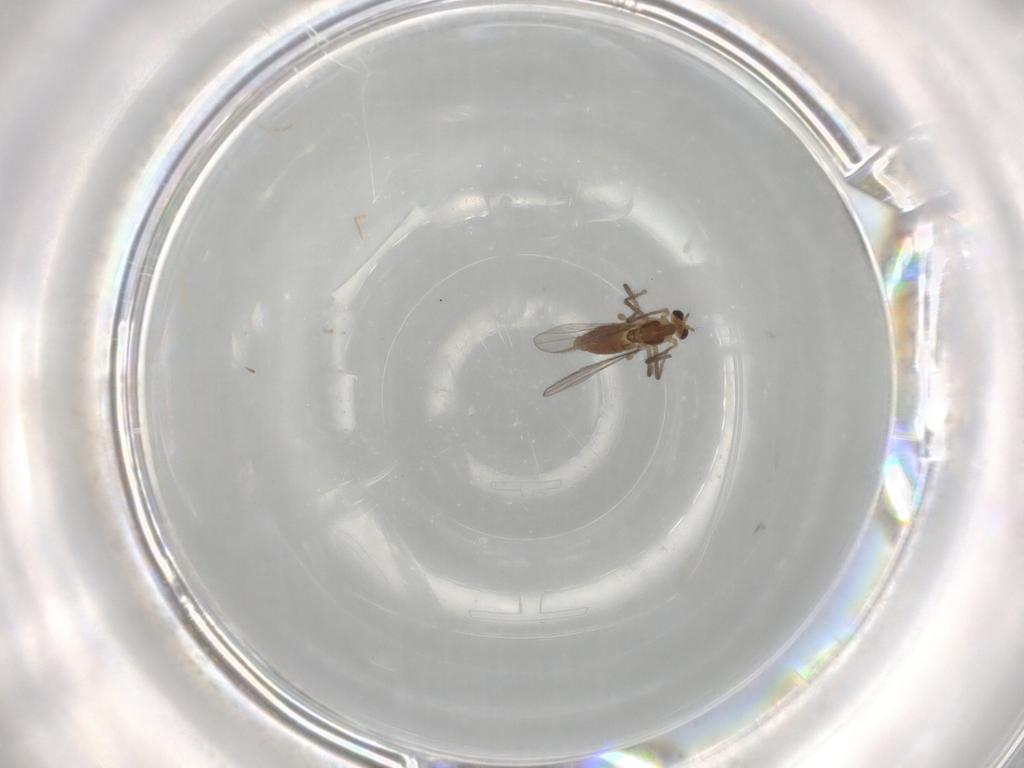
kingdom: Animalia
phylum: Arthropoda
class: Insecta
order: Diptera
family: Chironomidae
